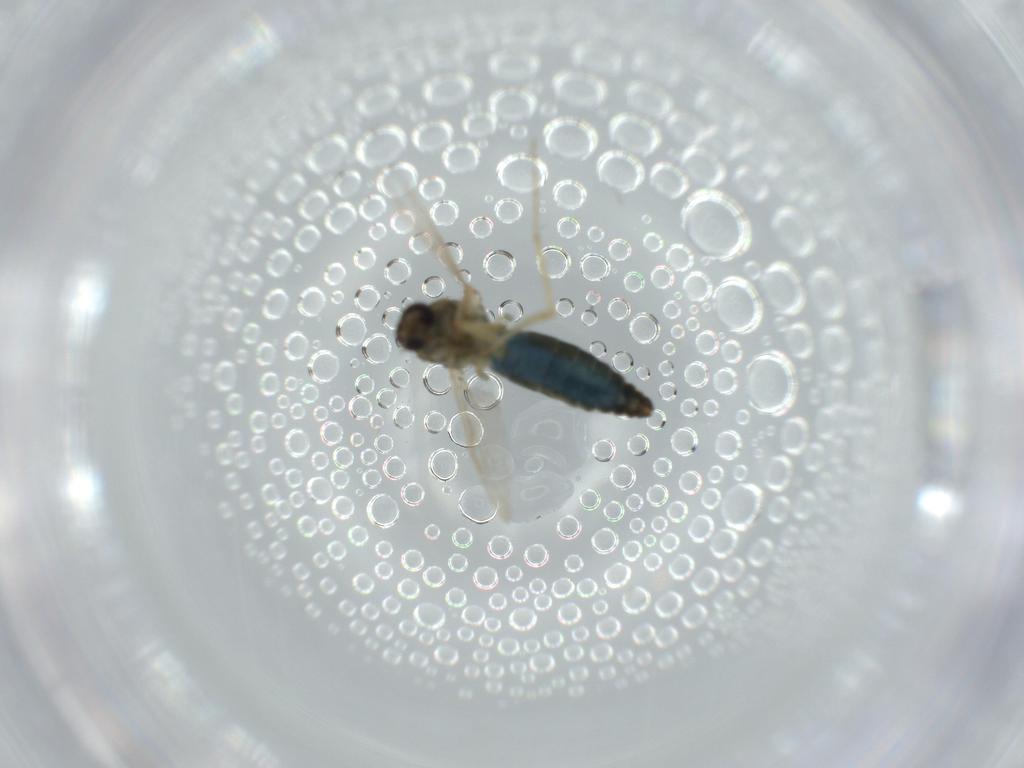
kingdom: Animalia
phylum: Arthropoda
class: Insecta
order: Diptera
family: Ceratopogonidae
